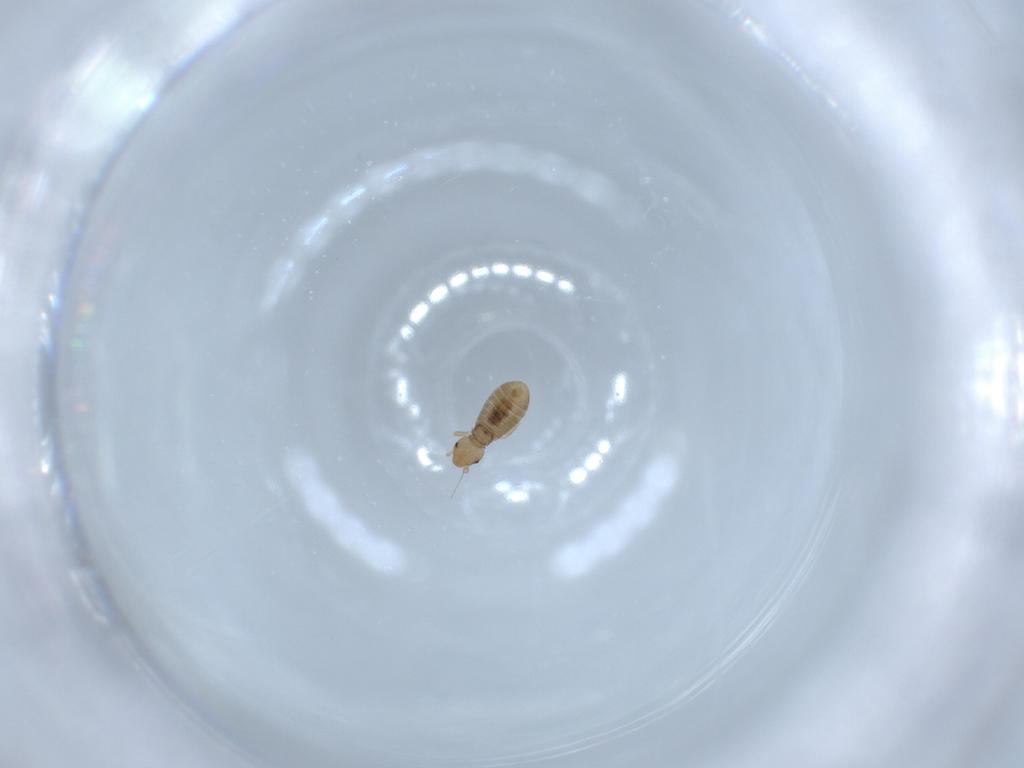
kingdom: Animalia
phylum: Arthropoda
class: Insecta
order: Psocodea
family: Liposcelididae
